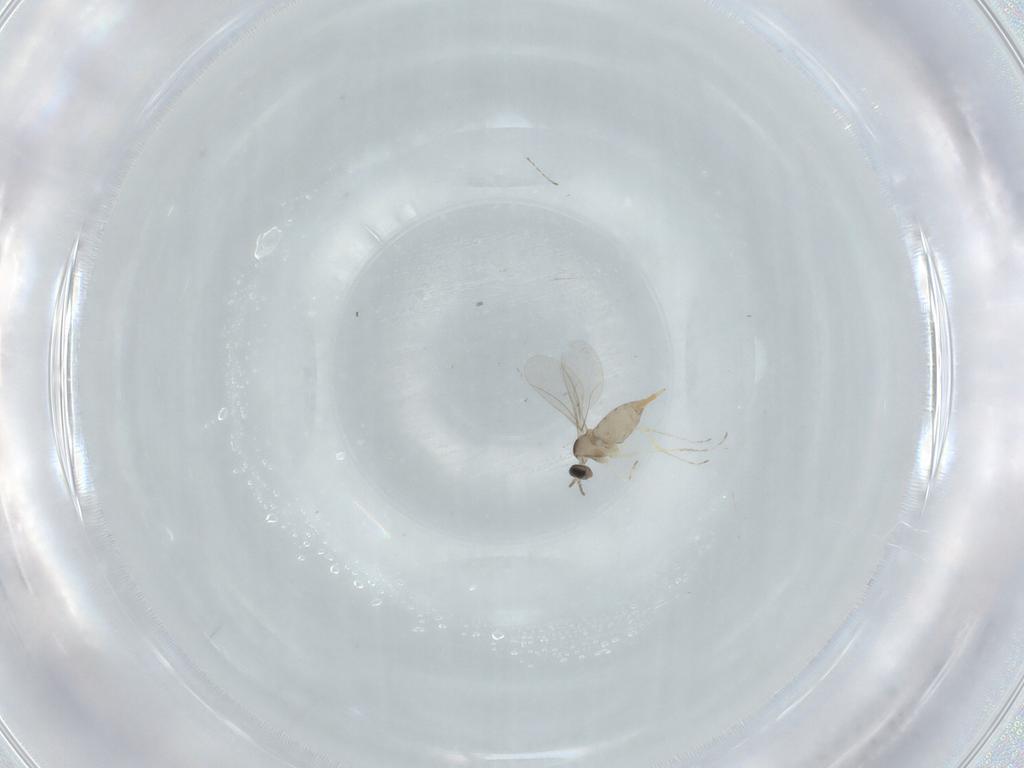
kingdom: Animalia
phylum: Arthropoda
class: Insecta
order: Diptera
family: Cecidomyiidae
